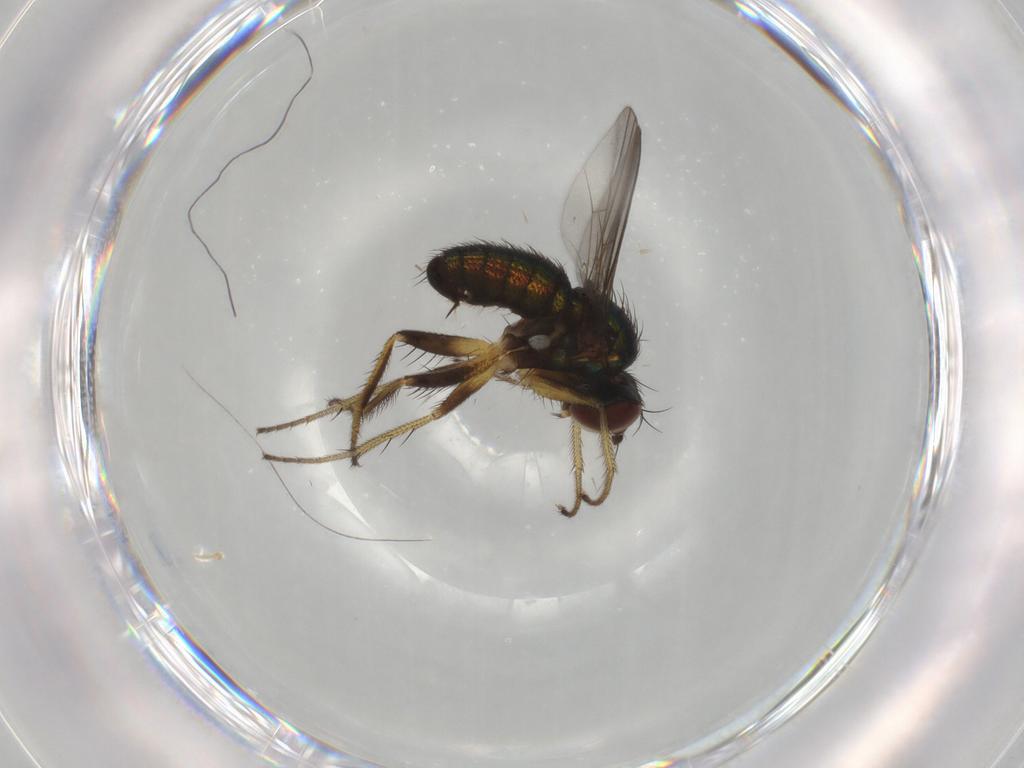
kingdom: Animalia
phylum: Arthropoda
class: Insecta
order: Diptera
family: Dolichopodidae
